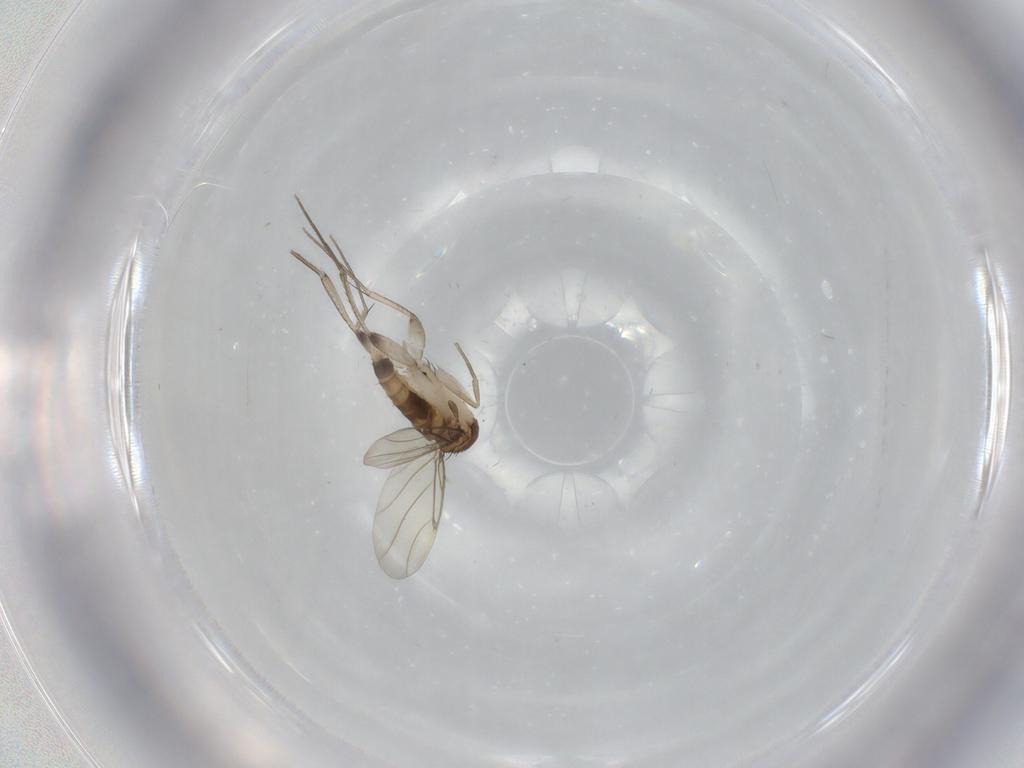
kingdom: Animalia
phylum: Arthropoda
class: Insecta
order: Diptera
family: Phoridae
